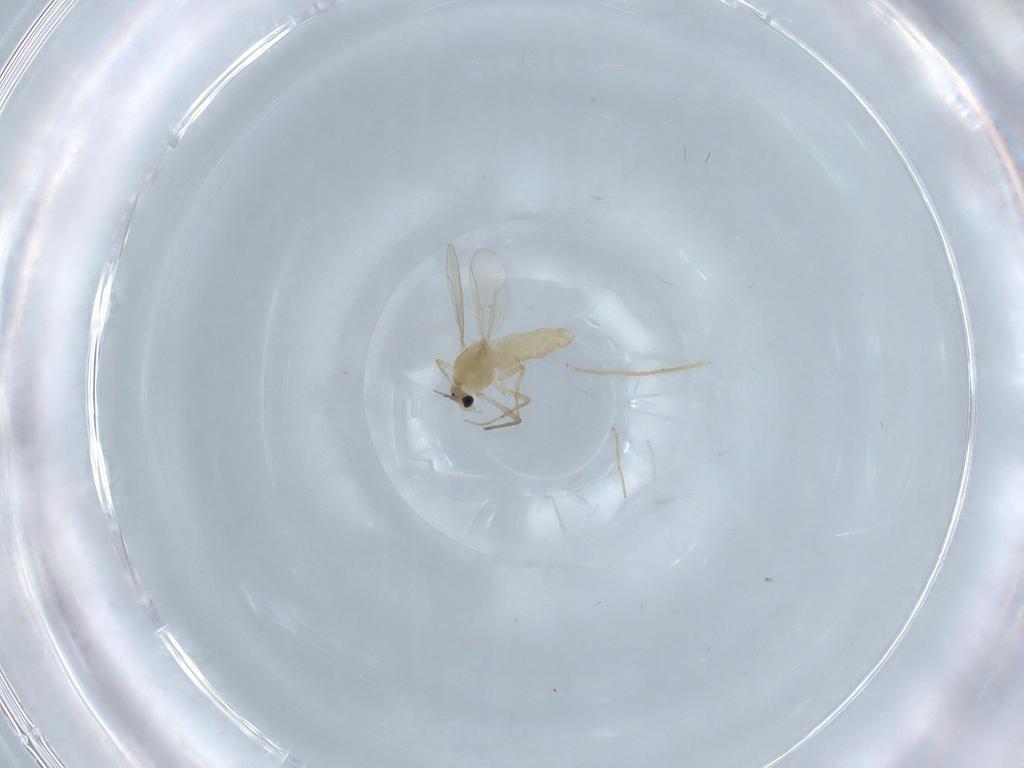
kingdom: Animalia
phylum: Arthropoda
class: Insecta
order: Diptera
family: Chironomidae
